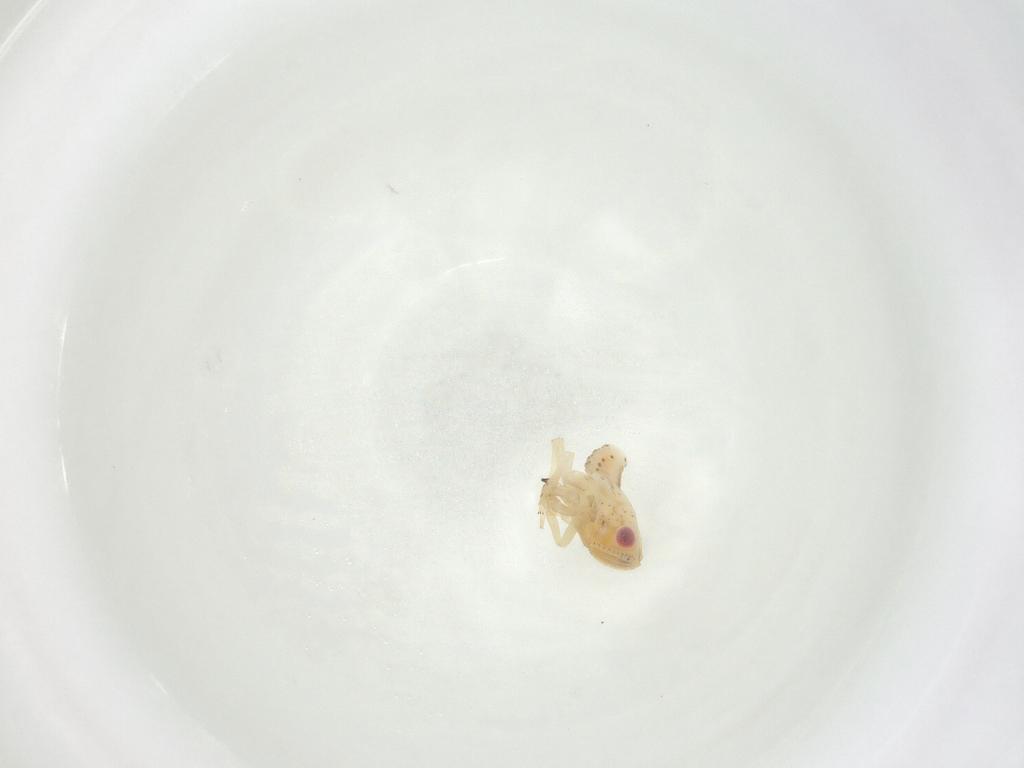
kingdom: Animalia
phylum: Arthropoda
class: Insecta
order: Hemiptera
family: Tropiduchidae
